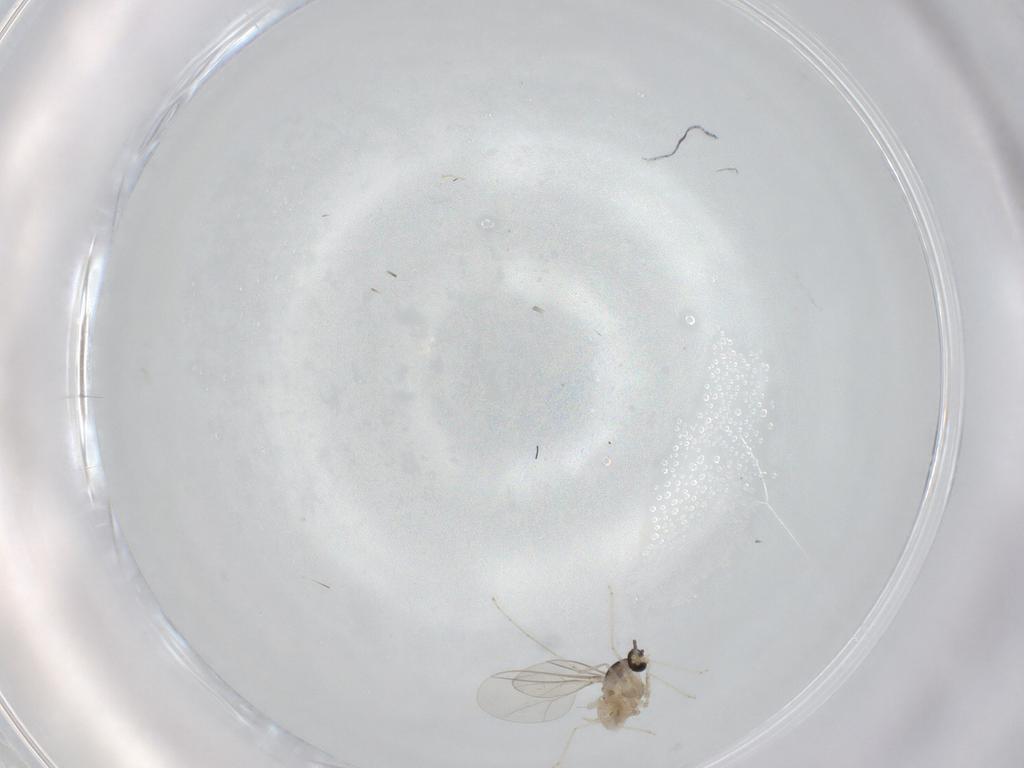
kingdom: Animalia
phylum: Arthropoda
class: Insecta
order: Diptera
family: Cecidomyiidae
